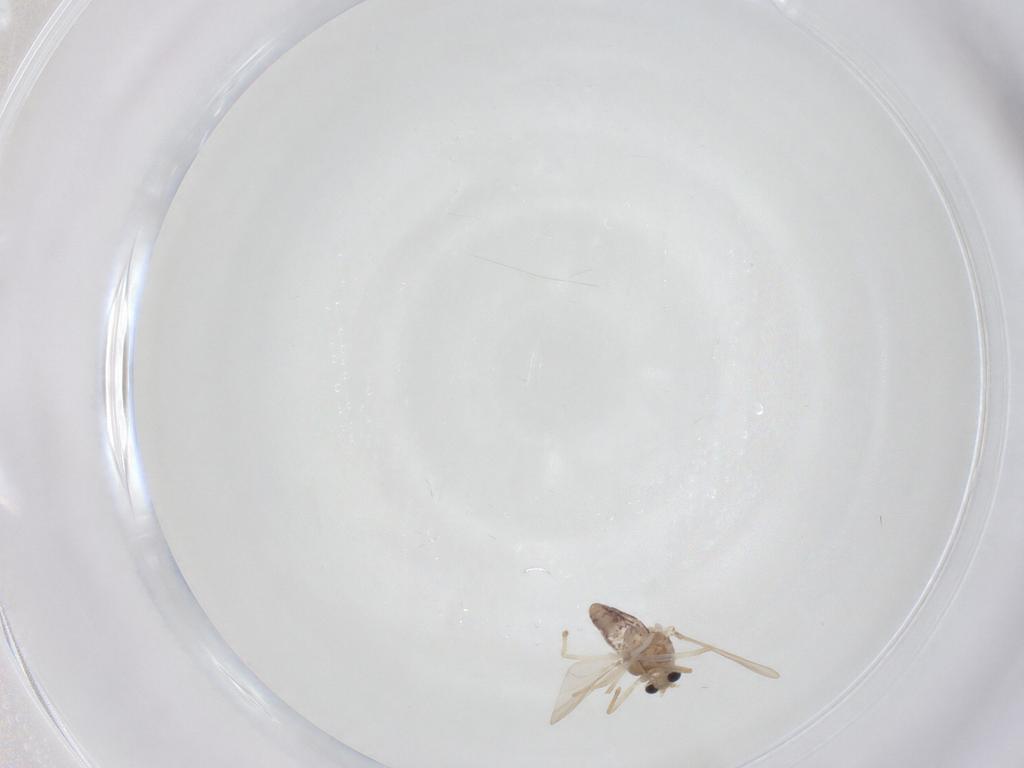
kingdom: Animalia
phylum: Arthropoda
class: Insecta
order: Diptera
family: Chironomidae
